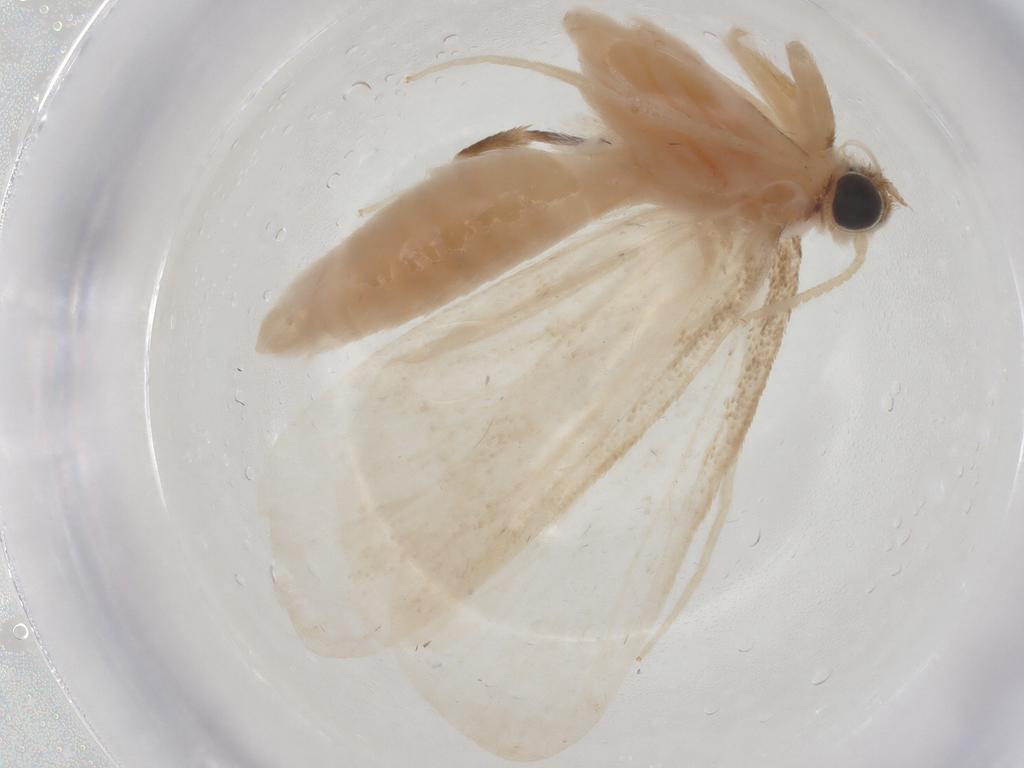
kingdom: Animalia
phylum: Arthropoda
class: Insecta
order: Lepidoptera
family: Crambidae
